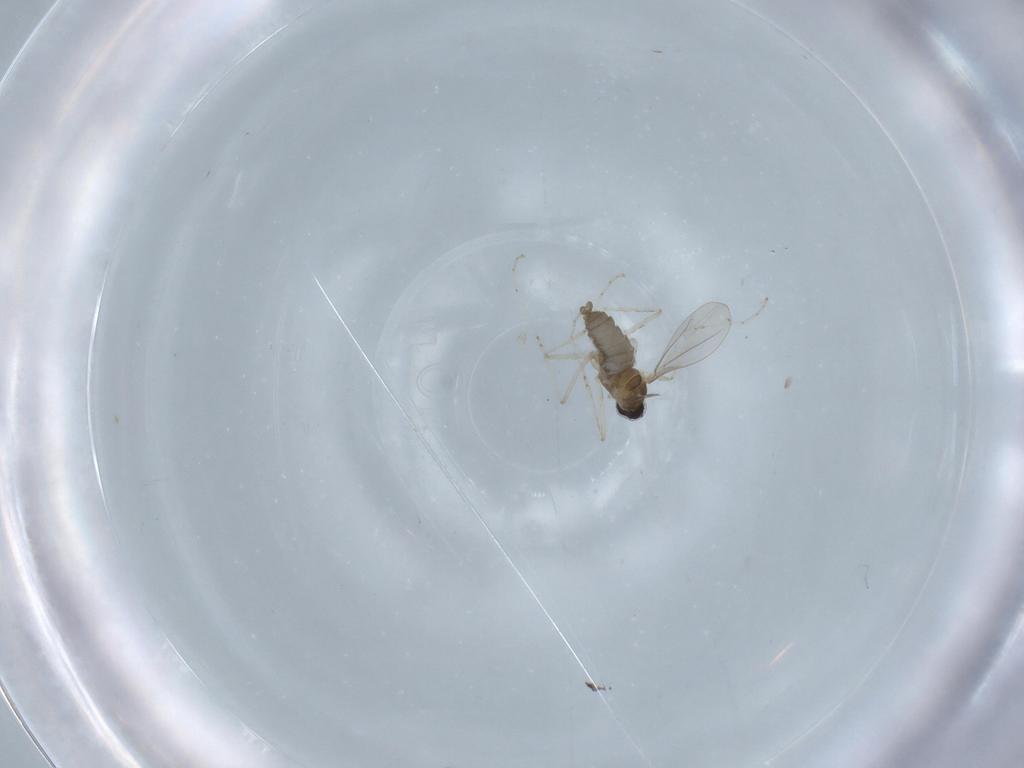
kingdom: Animalia
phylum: Arthropoda
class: Insecta
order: Diptera
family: Cecidomyiidae
